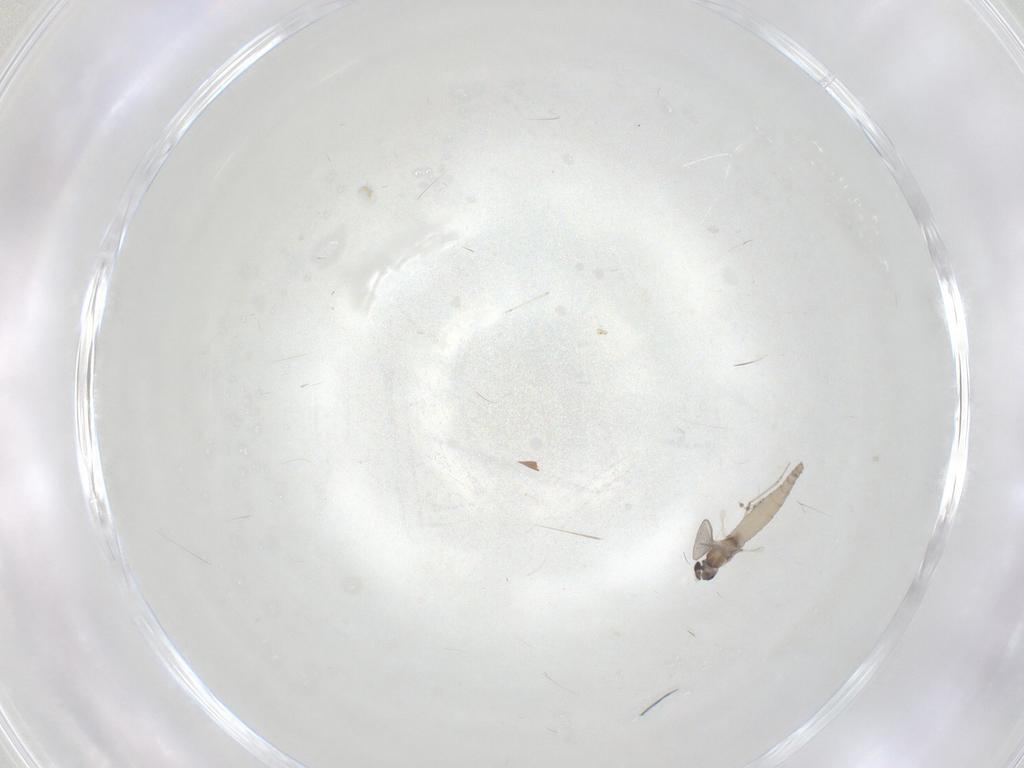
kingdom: Animalia
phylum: Arthropoda
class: Insecta
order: Diptera
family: Cecidomyiidae
